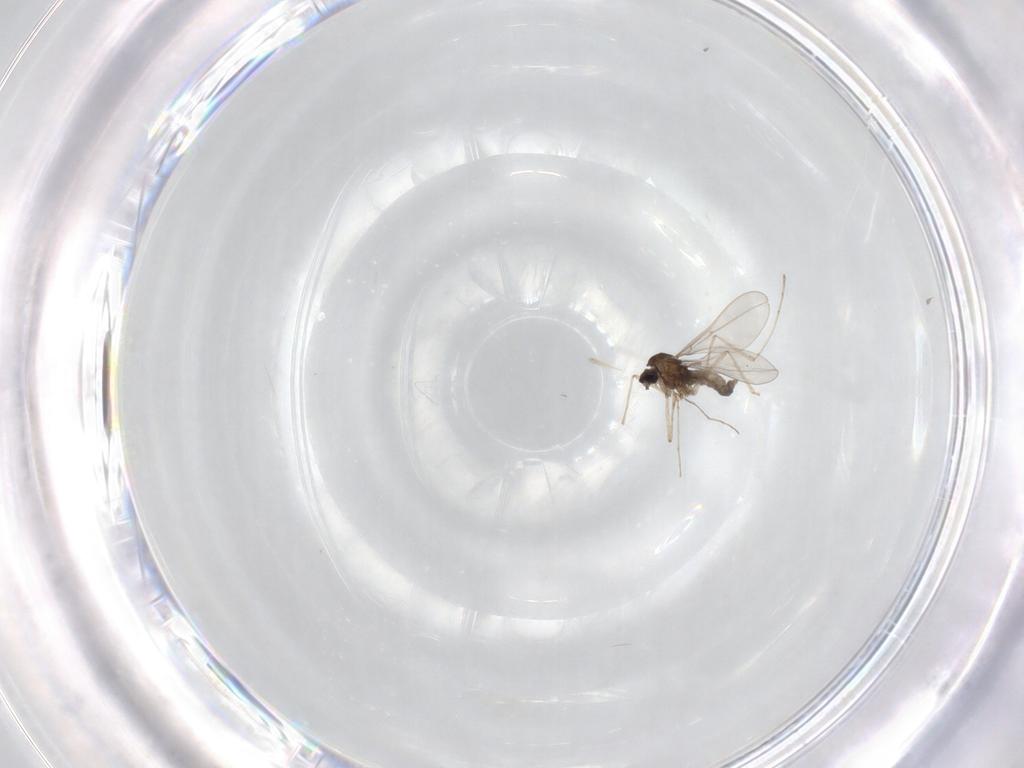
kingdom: Animalia
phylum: Arthropoda
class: Insecta
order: Diptera
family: Cecidomyiidae
